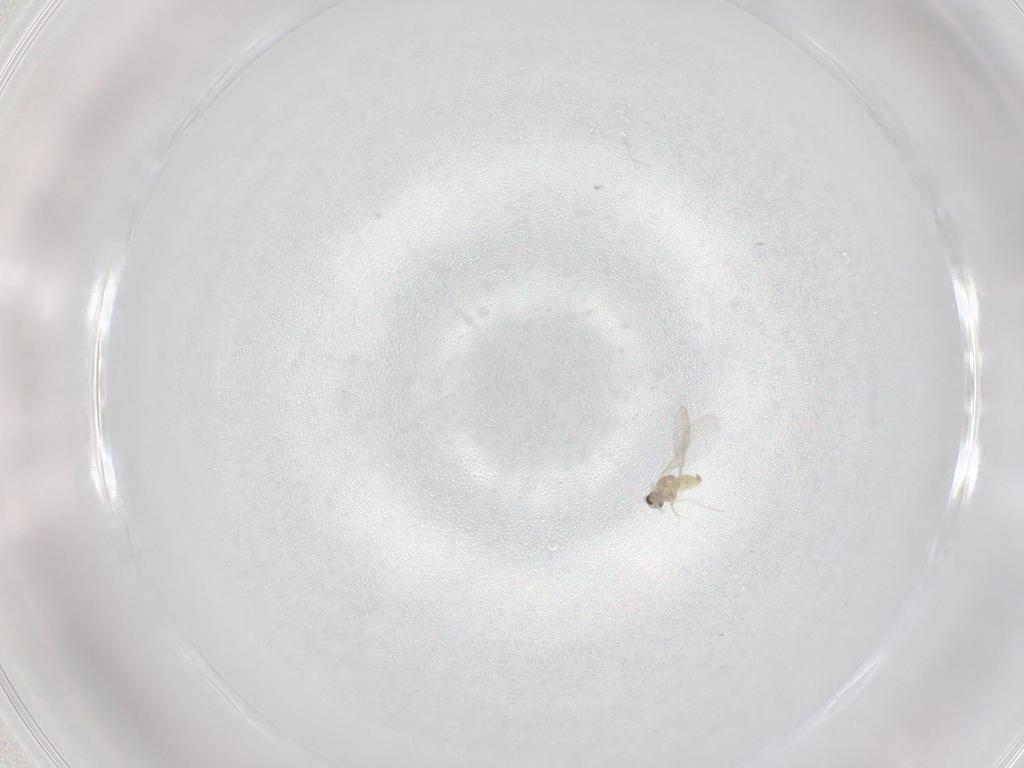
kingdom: Animalia
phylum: Arthropoda
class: Insecta
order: Diptera
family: Cecidomyiidae
